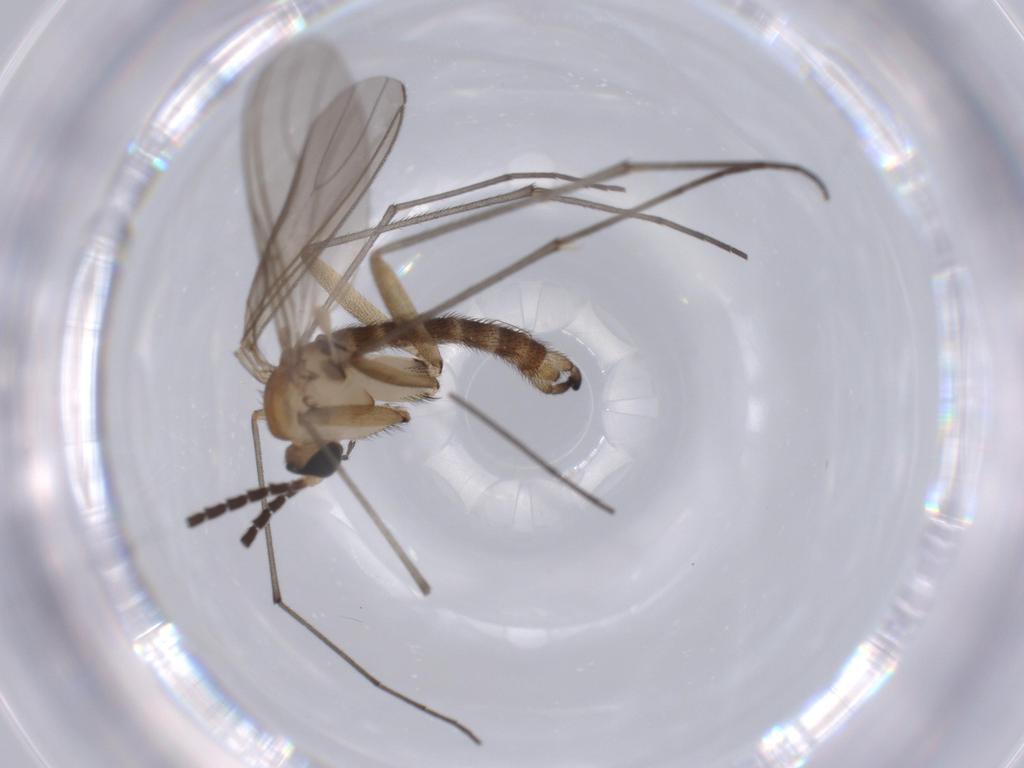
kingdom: Animalia
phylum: Arthropoda
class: Insecta
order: Diptera
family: Sciaridae
